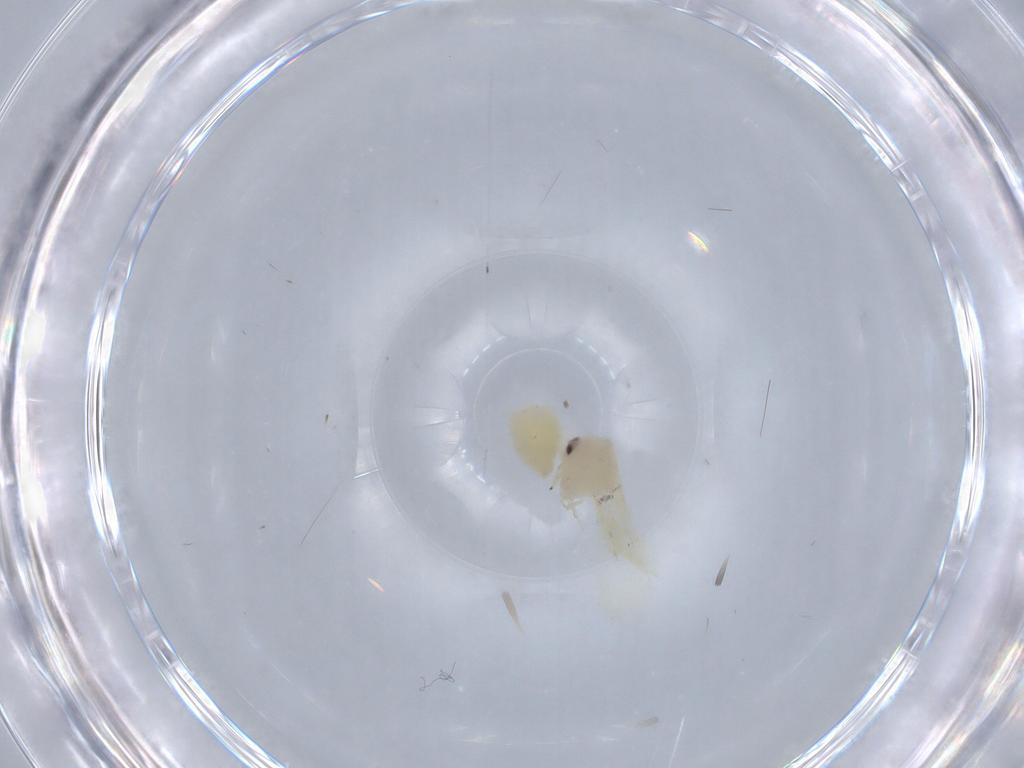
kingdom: Animalia
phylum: Arthropoda
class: Insecta
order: Hemiptera
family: Aleyrodidae
